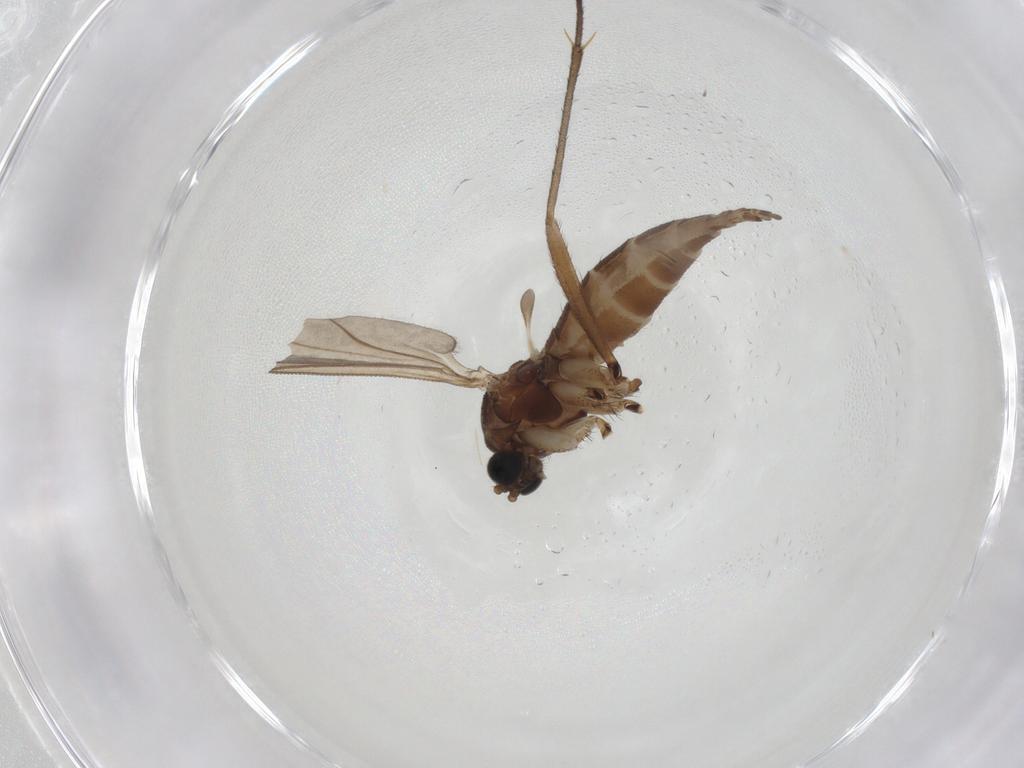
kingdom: Animalia
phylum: Arthropoda
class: Insecta
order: Diptera
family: Sciaridae
